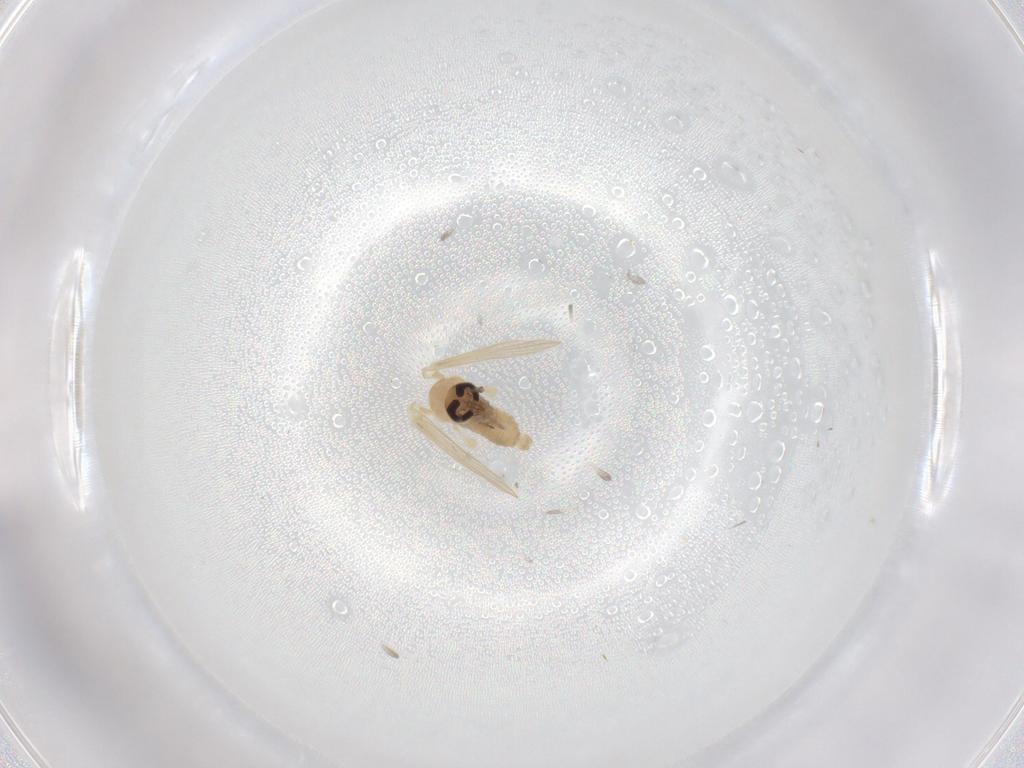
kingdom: Animalia
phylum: Arthropoda
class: Insecta
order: Diptera
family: Psychodidae
